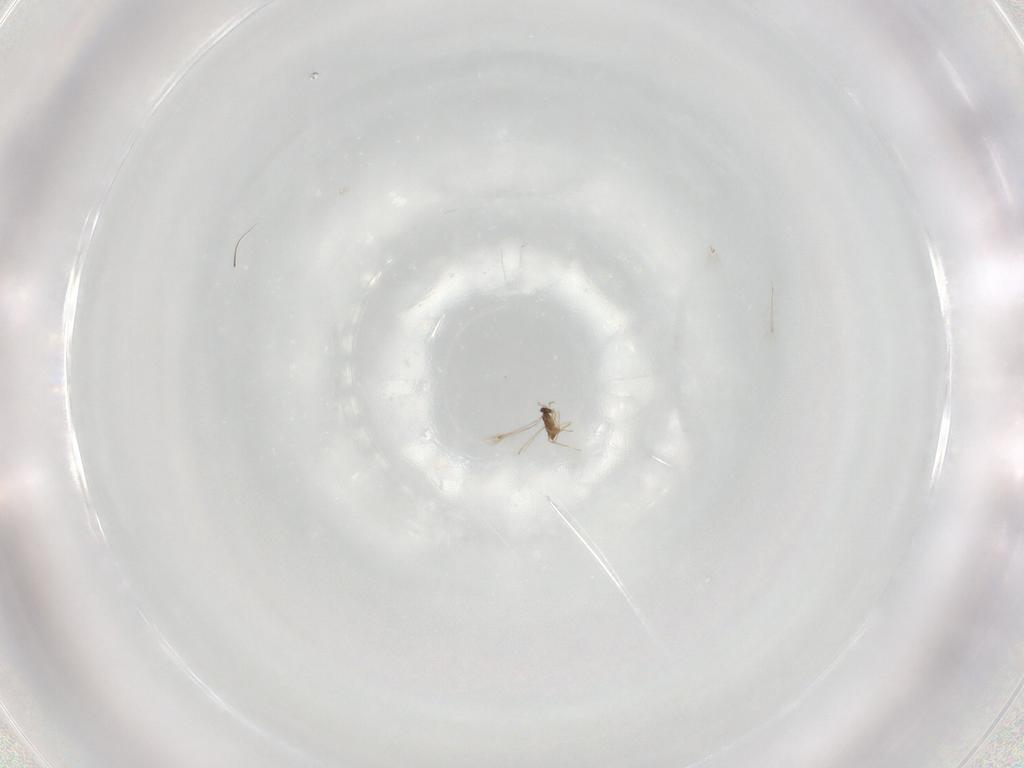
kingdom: Animalia
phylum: Arthropoda
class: Insecta
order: Hymenoptera
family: Mymaridae
